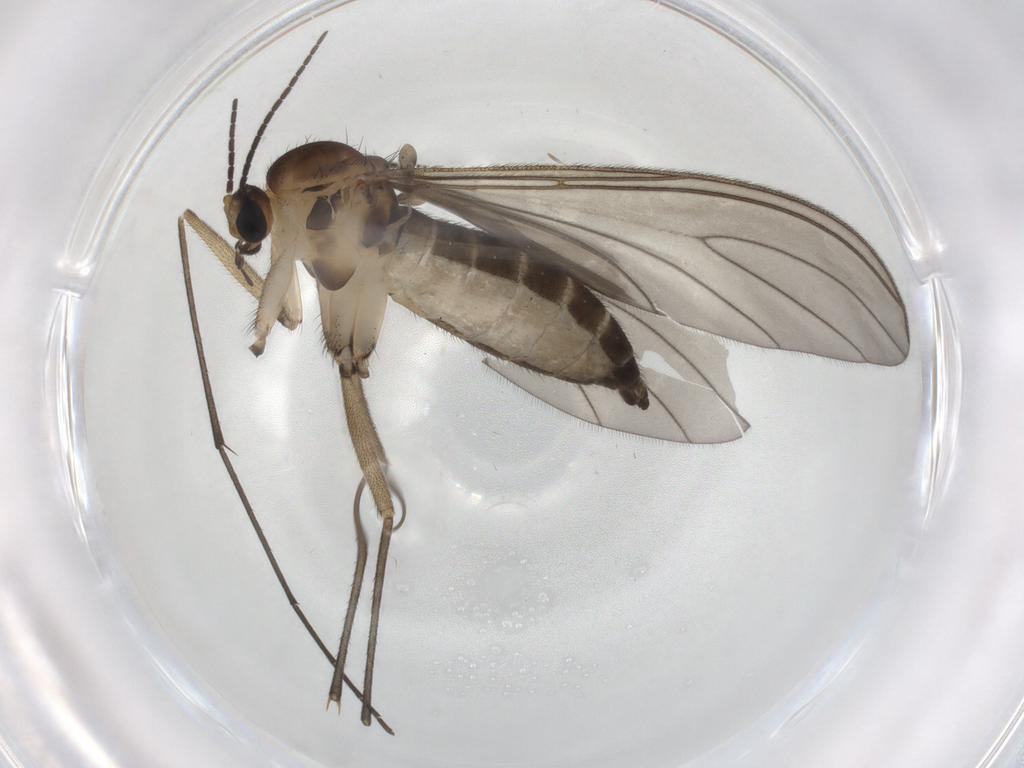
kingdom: Animalia
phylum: Arthropoda
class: Insecta
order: Diptera
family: Sciaridae
